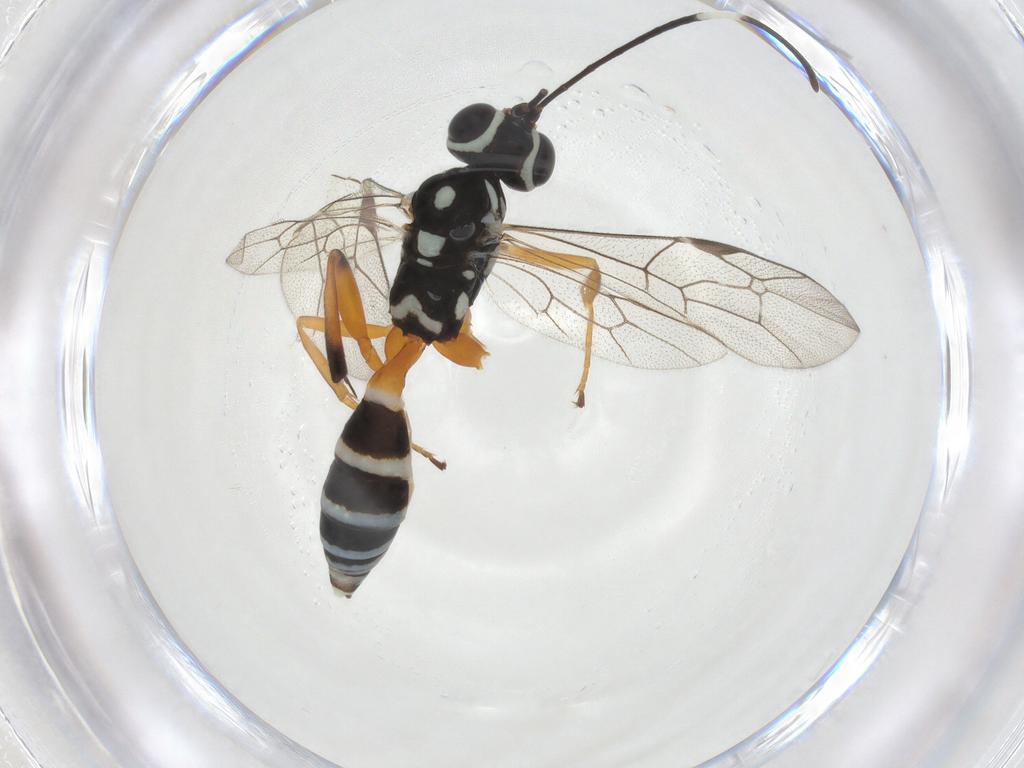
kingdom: Animalia
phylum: Arthropoda
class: Insecta
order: Hymenoptera
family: Ichneumonidae
